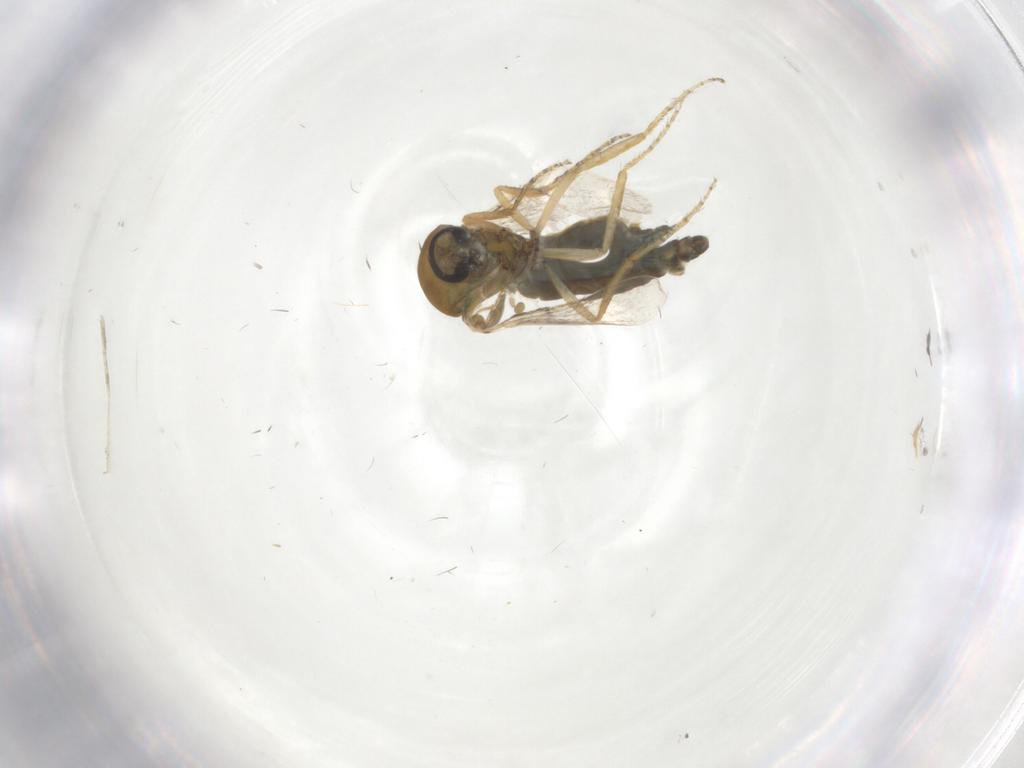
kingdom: Animalia
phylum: Arthropoda
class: Insecta
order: Diptera
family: Ceratopogonidae
